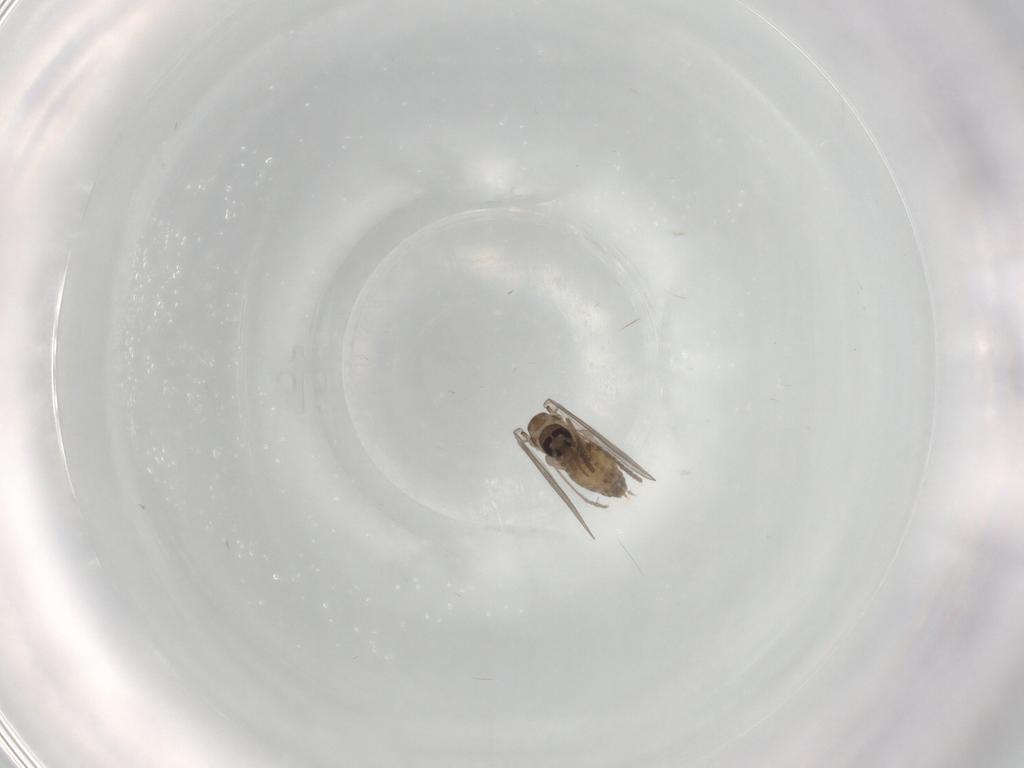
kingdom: Animalia
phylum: Arthropoda
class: Insecta
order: Diptera
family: Psychodidae
